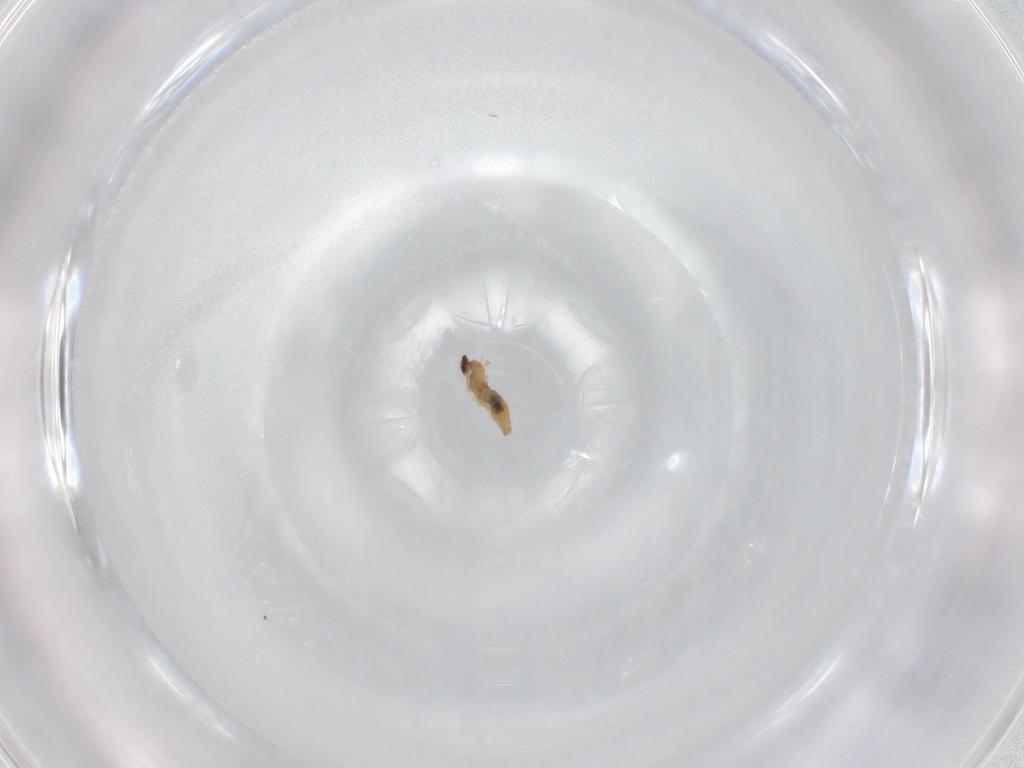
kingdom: Animalia
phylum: Arthropoda
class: Insecta
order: Diptera
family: Cecidomyiidae
